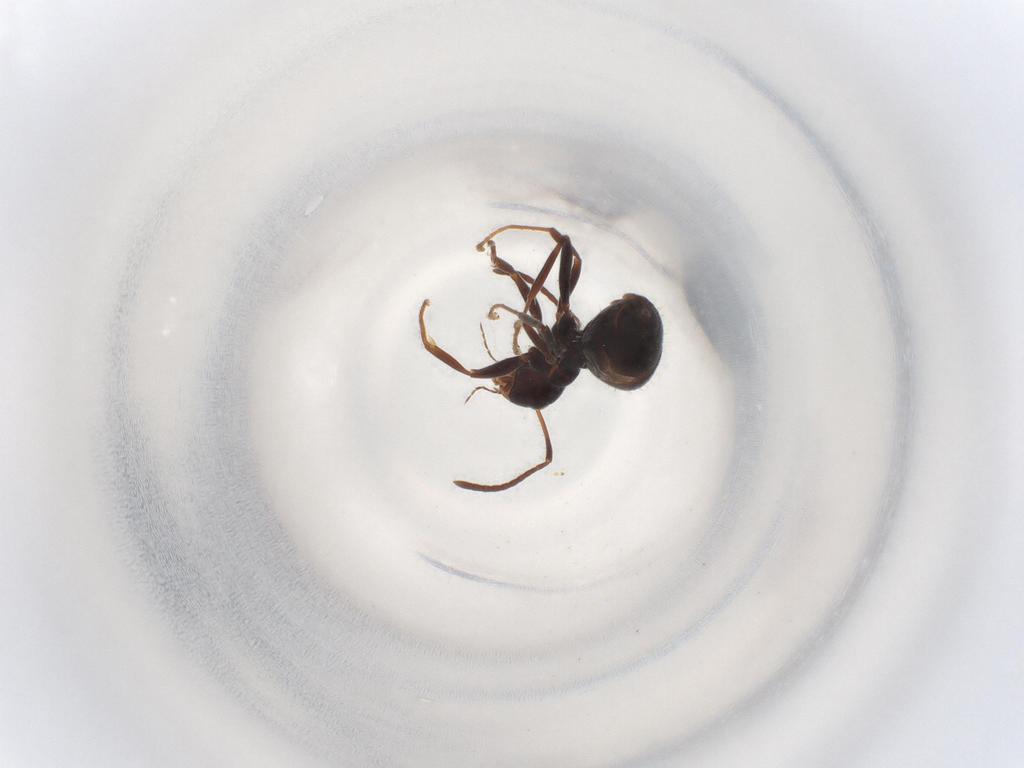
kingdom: Animalia
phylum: Arthropoda
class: Insecta
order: Hymenoptera
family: Formicidae
